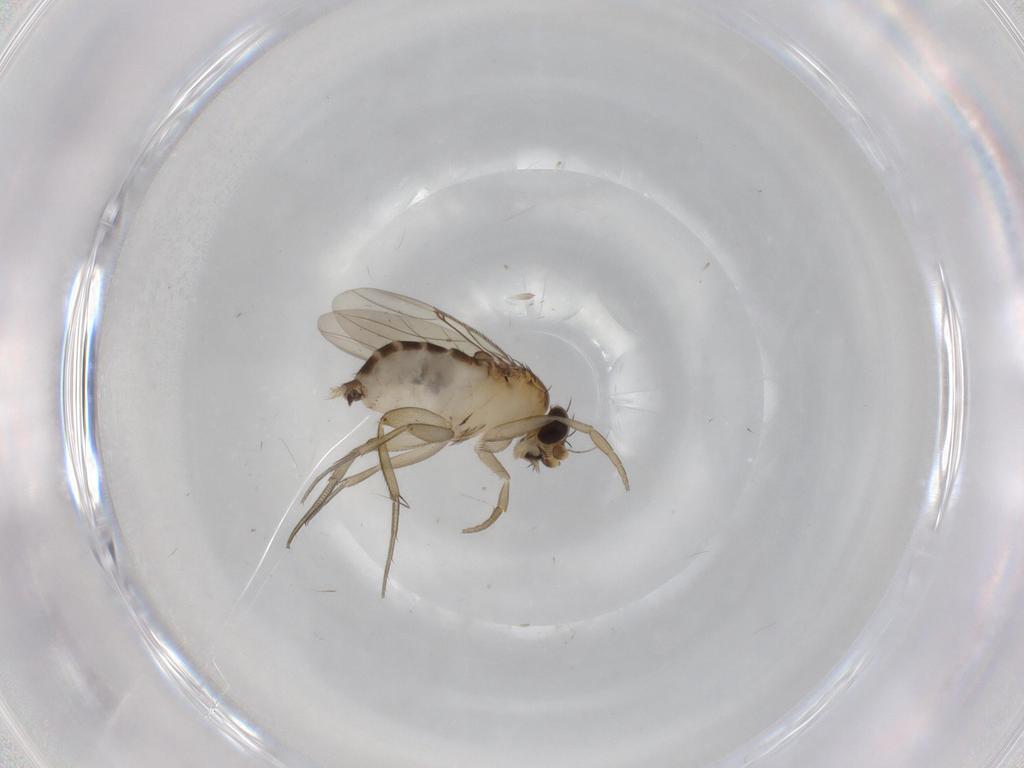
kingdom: Animalia
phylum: Arthropoda
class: Insecta
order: Diptera
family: Phoridae
